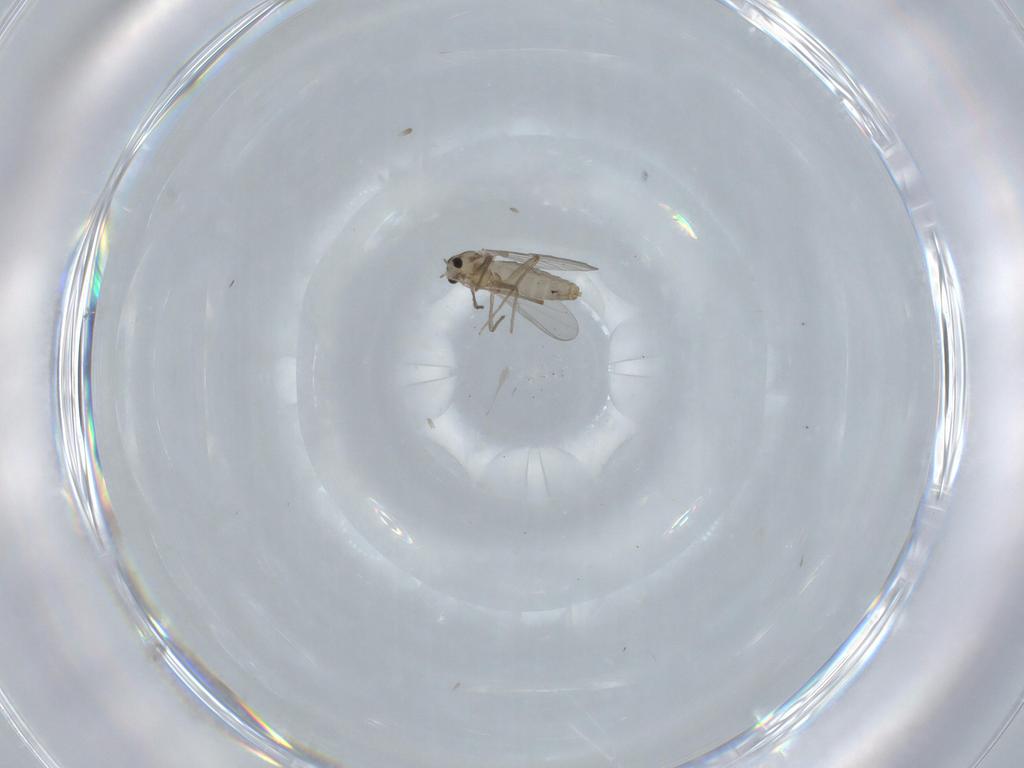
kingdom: Animalia
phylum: Arthropoda
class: Insecta
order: Diptera
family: Chironomidae
